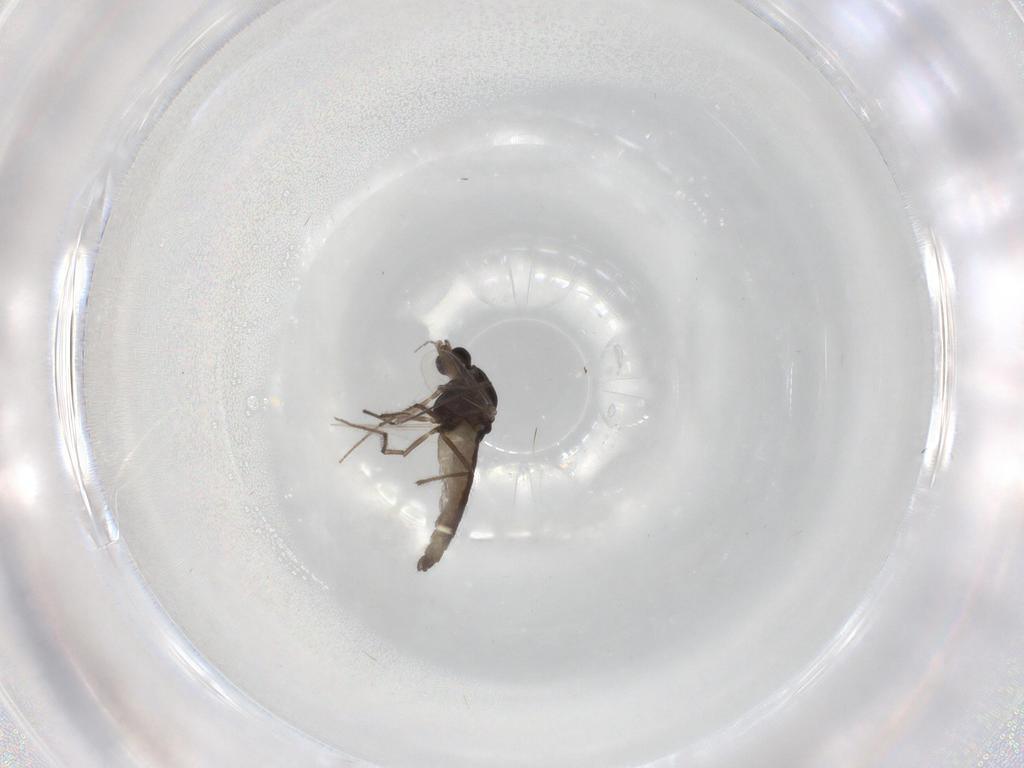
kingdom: Animalia
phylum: Arthropoda
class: Insecta
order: Diptera
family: Chironomidae
